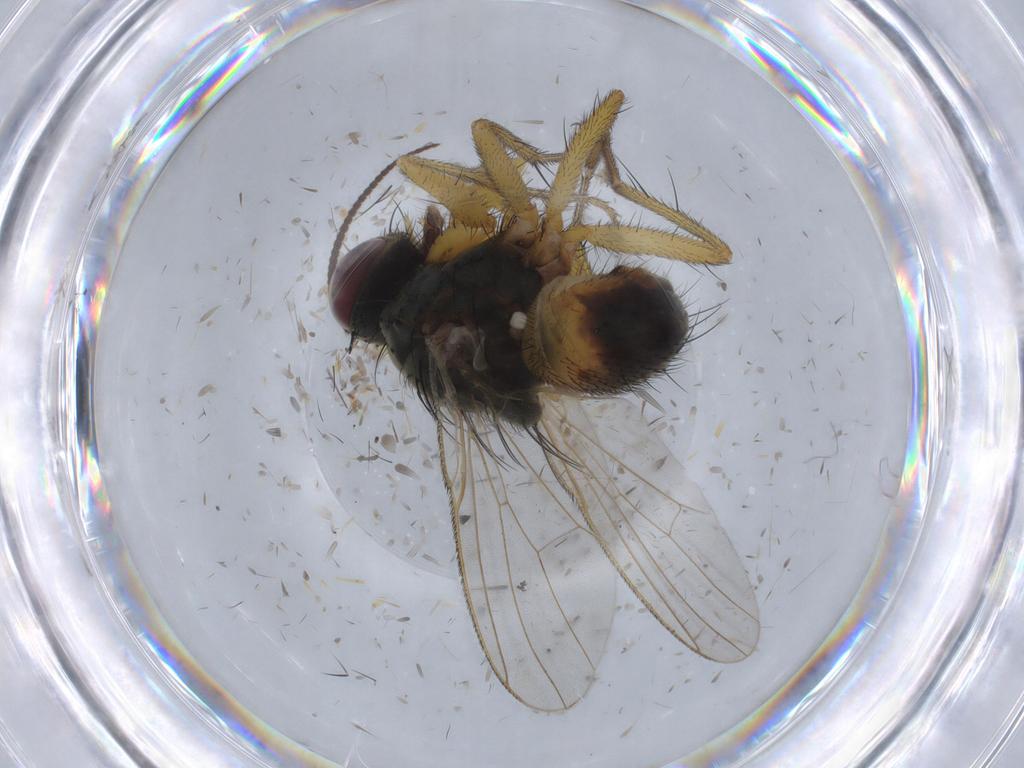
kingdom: Animalia
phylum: Arthropoda
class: Insecta
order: Diptera
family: Muscidae
